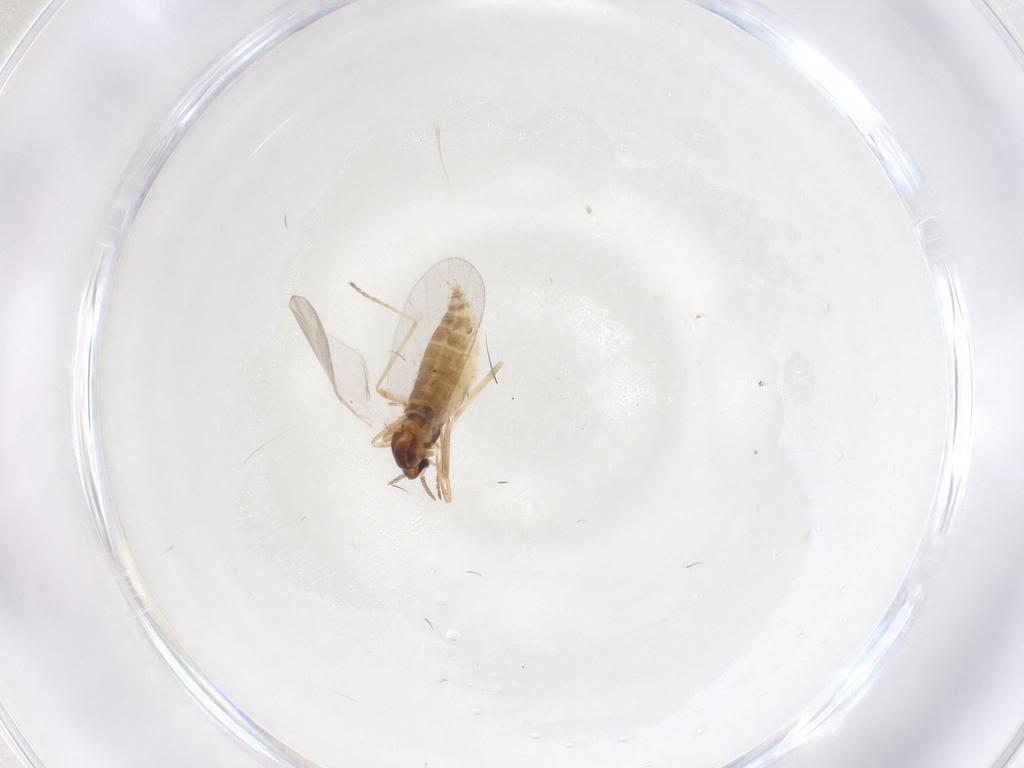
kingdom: Animalia
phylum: Arthropoda
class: Insecta
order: Diptera
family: Cecidomyiidae
